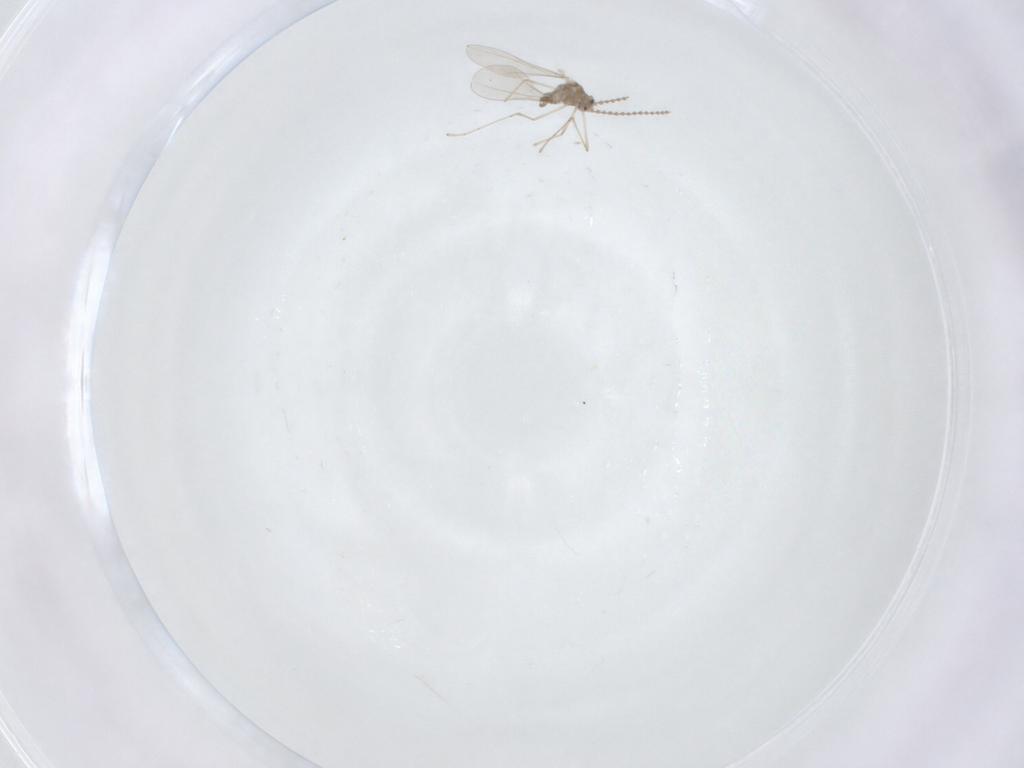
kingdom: Animalia
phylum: Arthropoda
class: Insecta
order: Diptera
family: Cecidomyiidae
